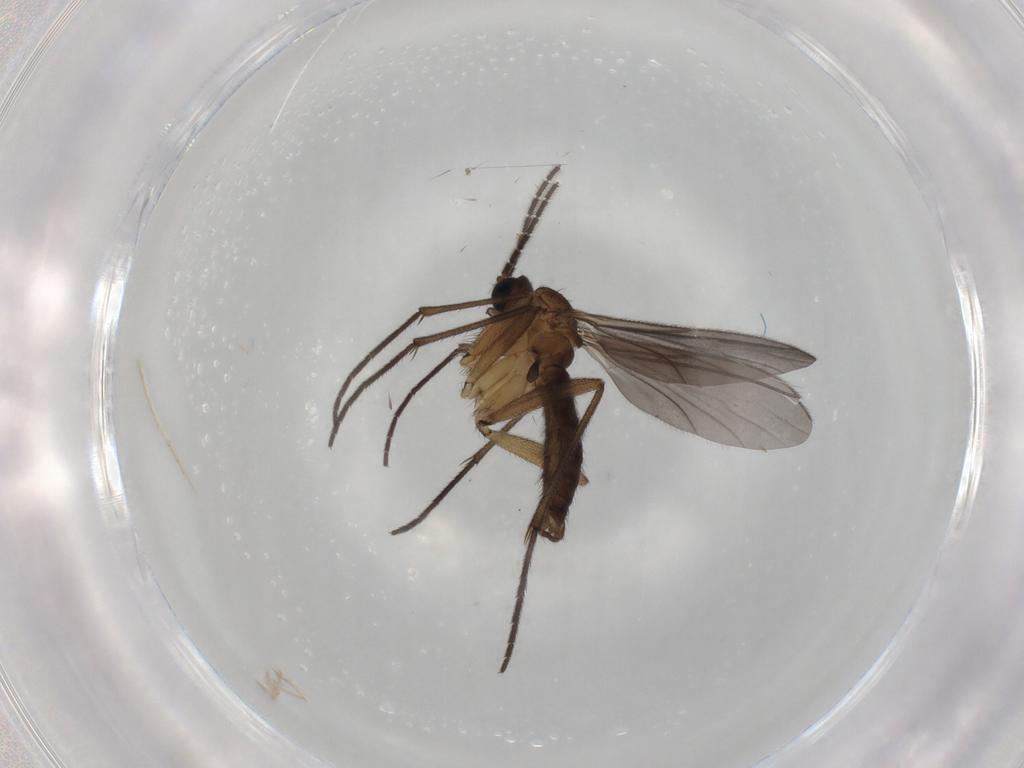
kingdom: Animalia
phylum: Arthropoda
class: Insecta
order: Diptera
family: Sciaridae
